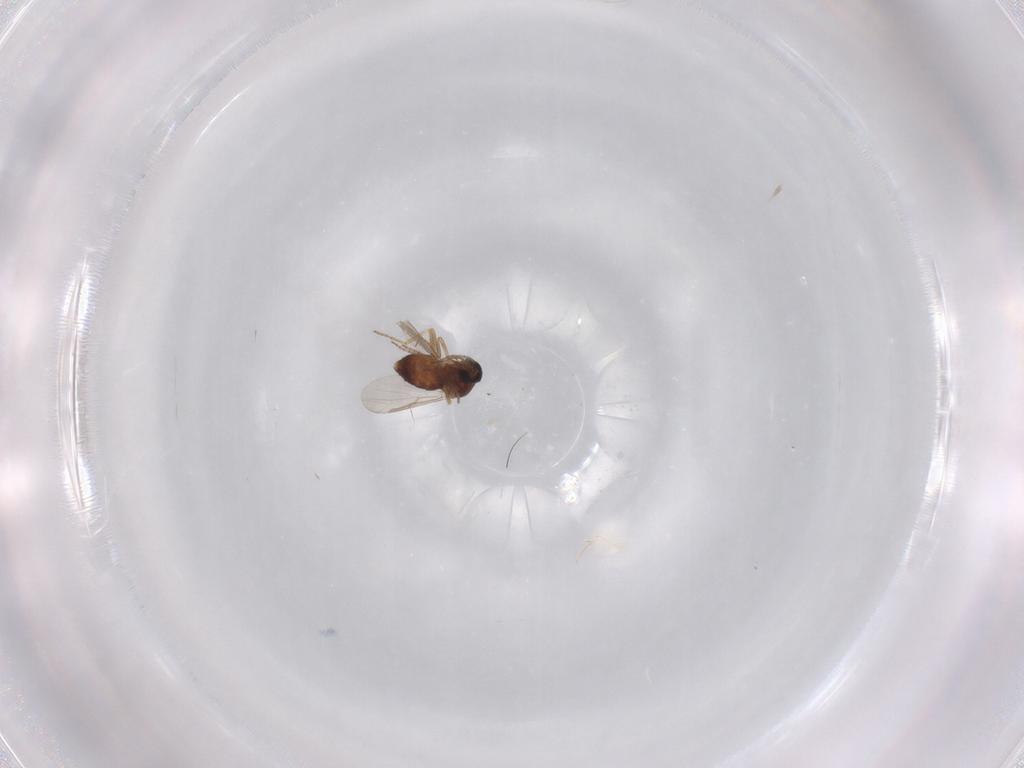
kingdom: Animalia
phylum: Arthropoda
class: Insecta
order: Diptera
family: Ceratopogonidae
